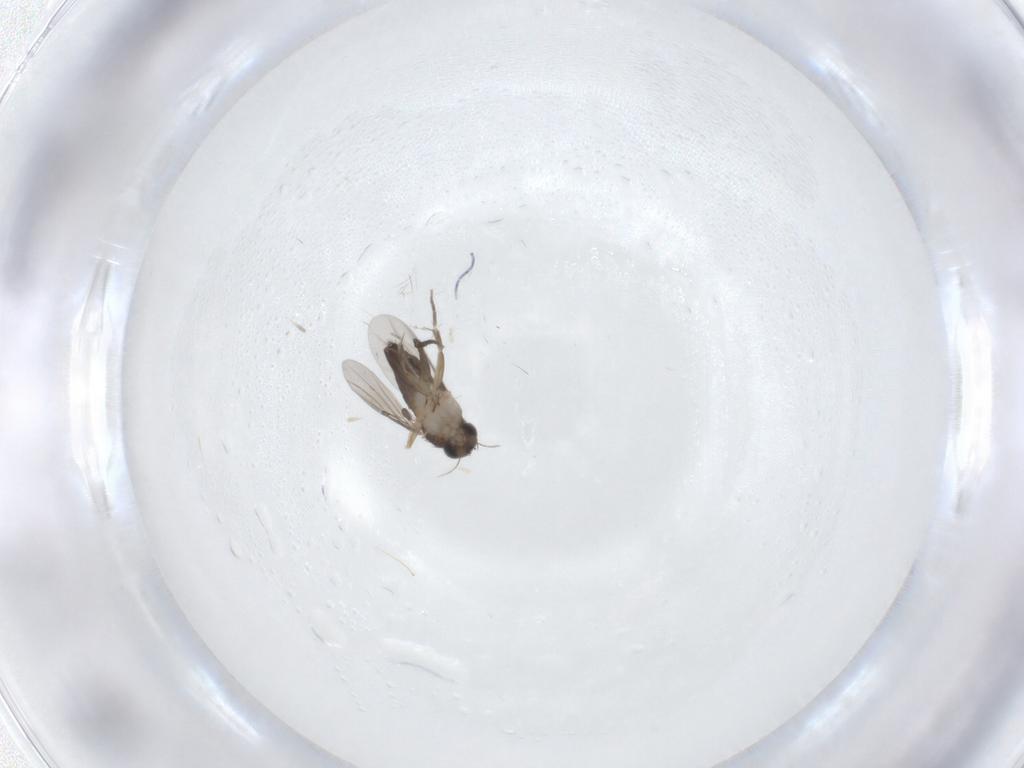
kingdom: Animalia
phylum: Arthropoda
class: Insecta
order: Diptera
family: Phoridae
